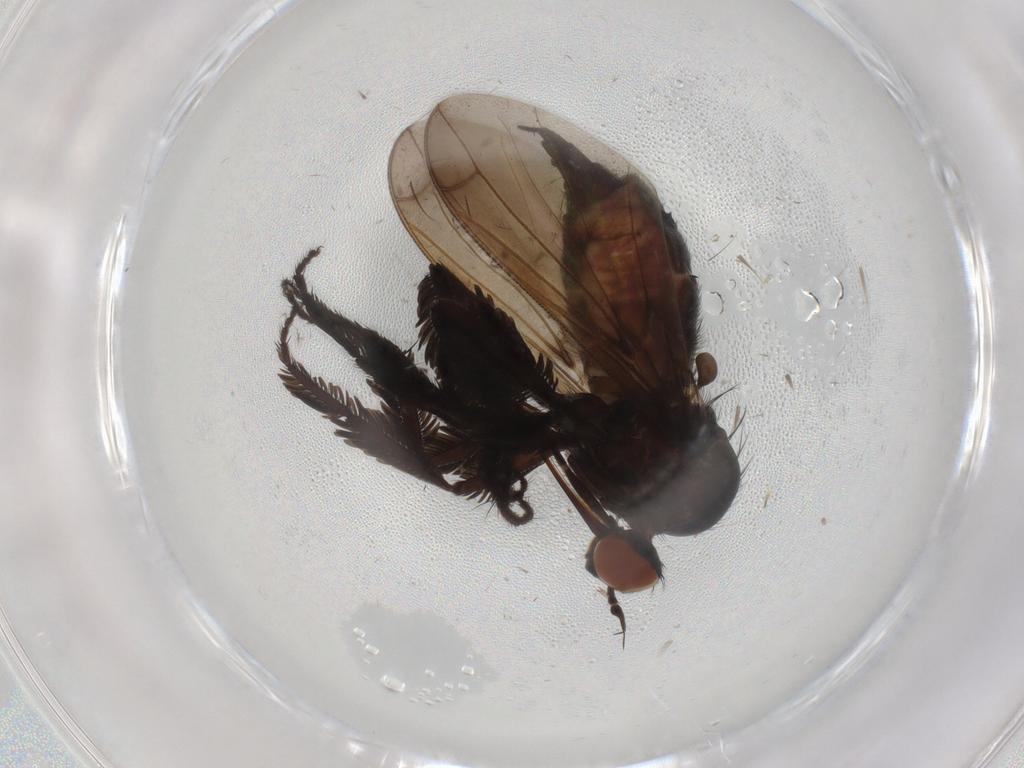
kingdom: Animalia
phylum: Arthropoda
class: Insecta
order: Diptera
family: Empididae
